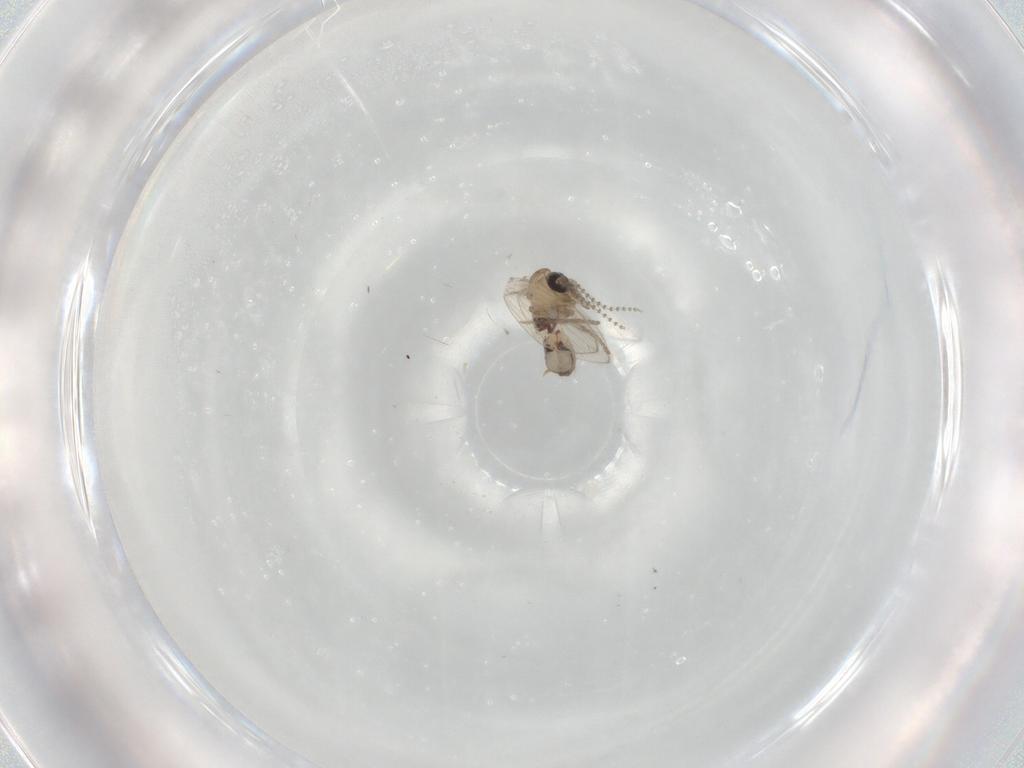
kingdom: Animalia
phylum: Arthropoda
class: Insecta
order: Diptera
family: Psychodidae
